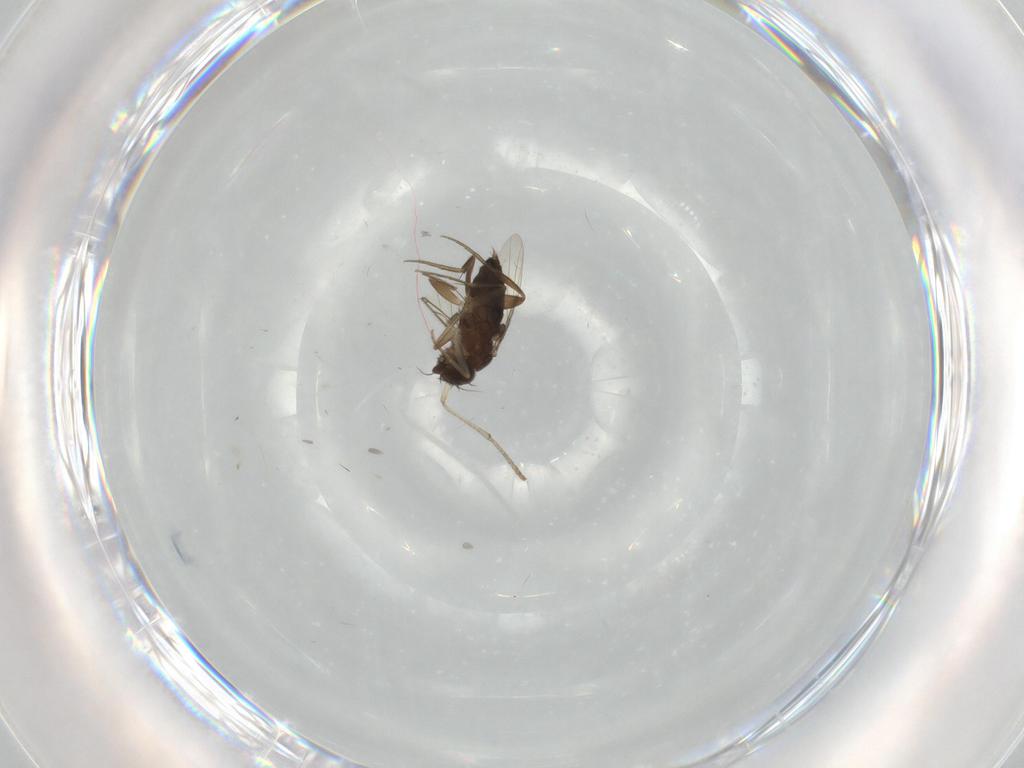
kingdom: Animalia
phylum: Arthropoda
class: Insecta
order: Diptera
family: Psychodidae
